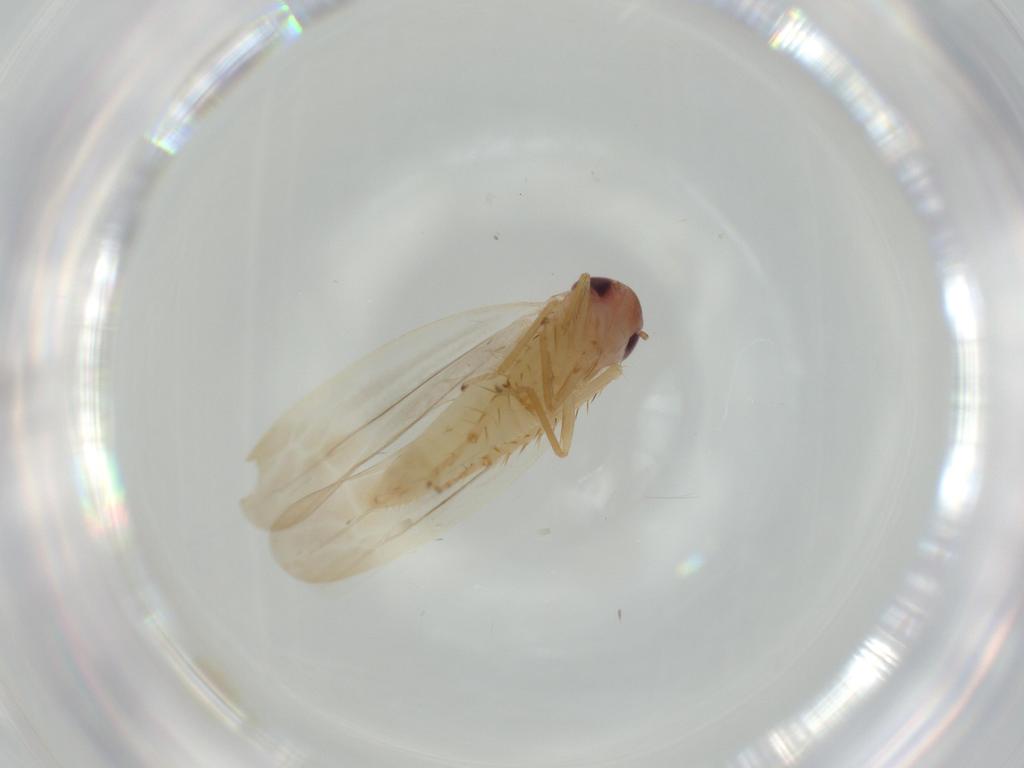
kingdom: Animalia
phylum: Arthropoda
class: Insecta
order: Hemiptera
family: Cicadellidae
